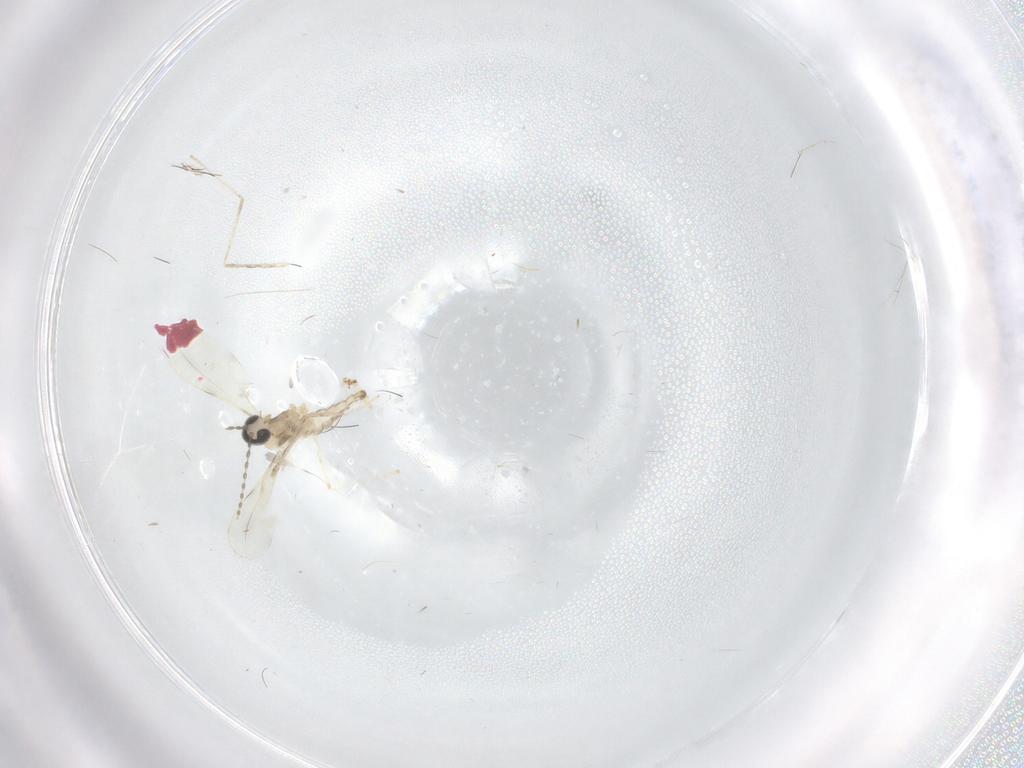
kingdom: Animalia
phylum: Arthropoda
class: Insecta
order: Diptera
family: Cecidomyiidae
